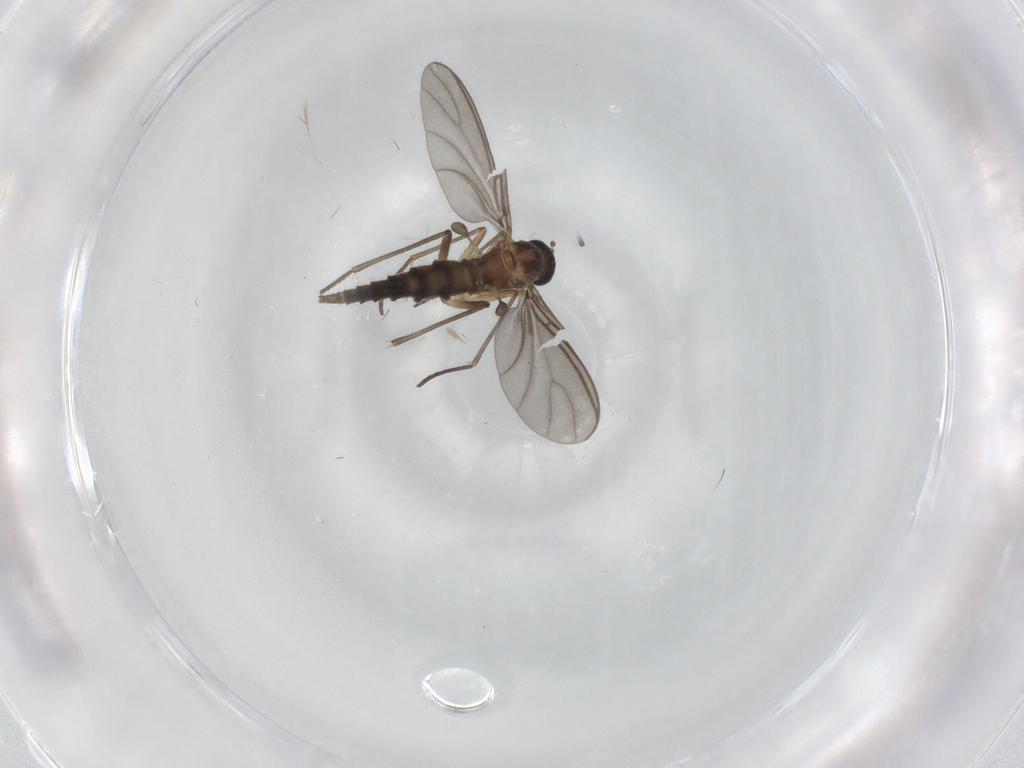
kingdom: Animalia
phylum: Arthropoda
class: Insecta
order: Diptera
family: Sciaridae
